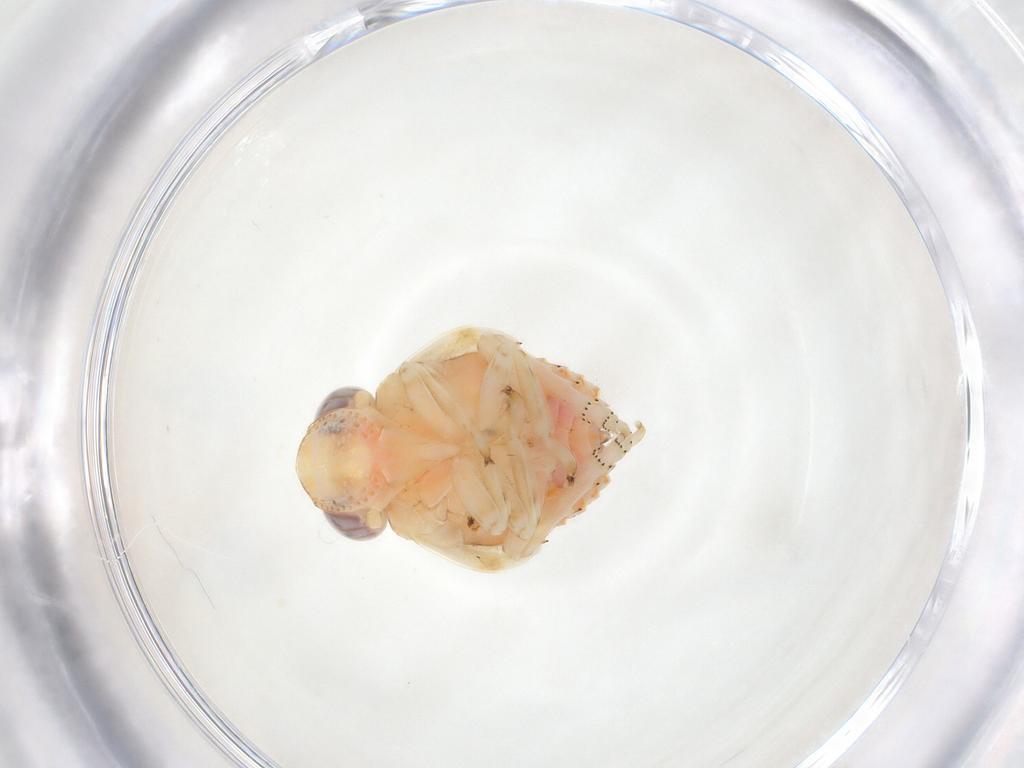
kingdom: Animalia
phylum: Arthropoda
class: Insecta
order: Hemiptera
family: Issidae
